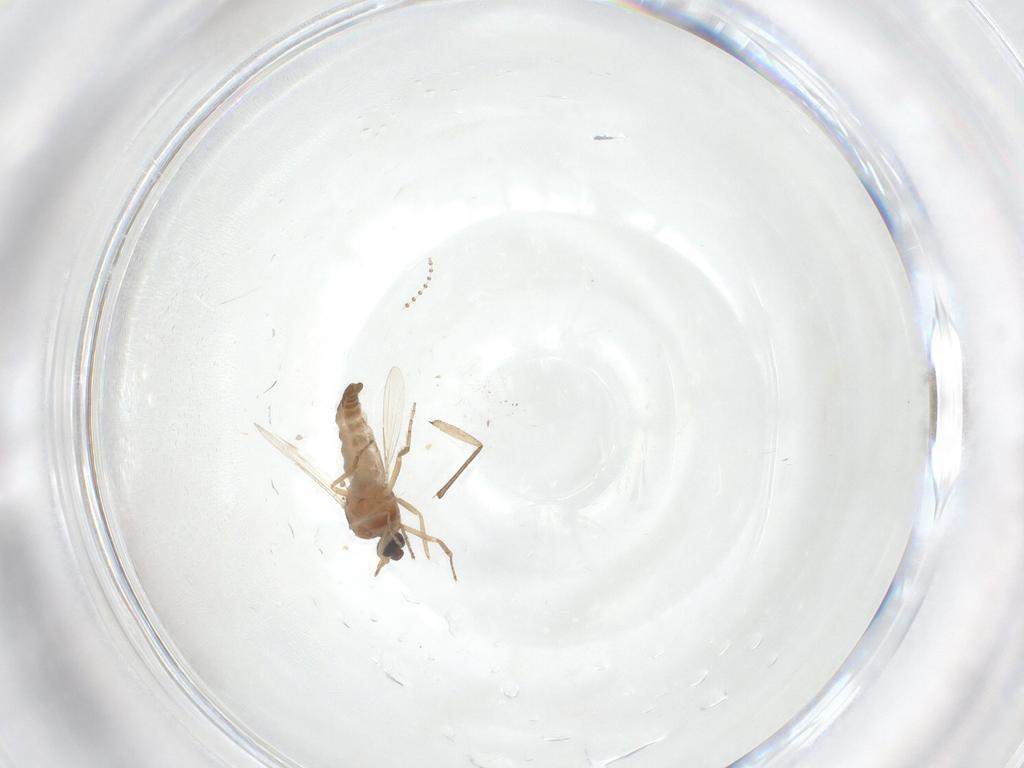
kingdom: Animalia
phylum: Arthropoda
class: Insecta
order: Diptera
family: Ceratopogonidae
